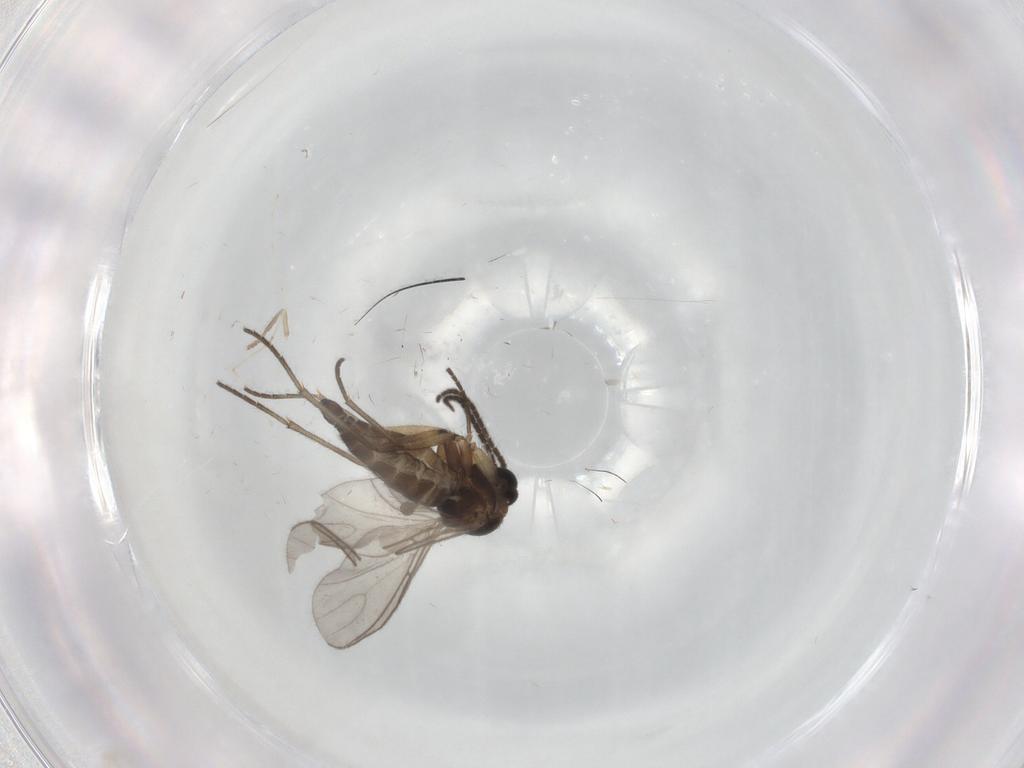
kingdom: Animalia
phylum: Arthropoda
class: Insecta
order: Diptera
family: Sciaridae
